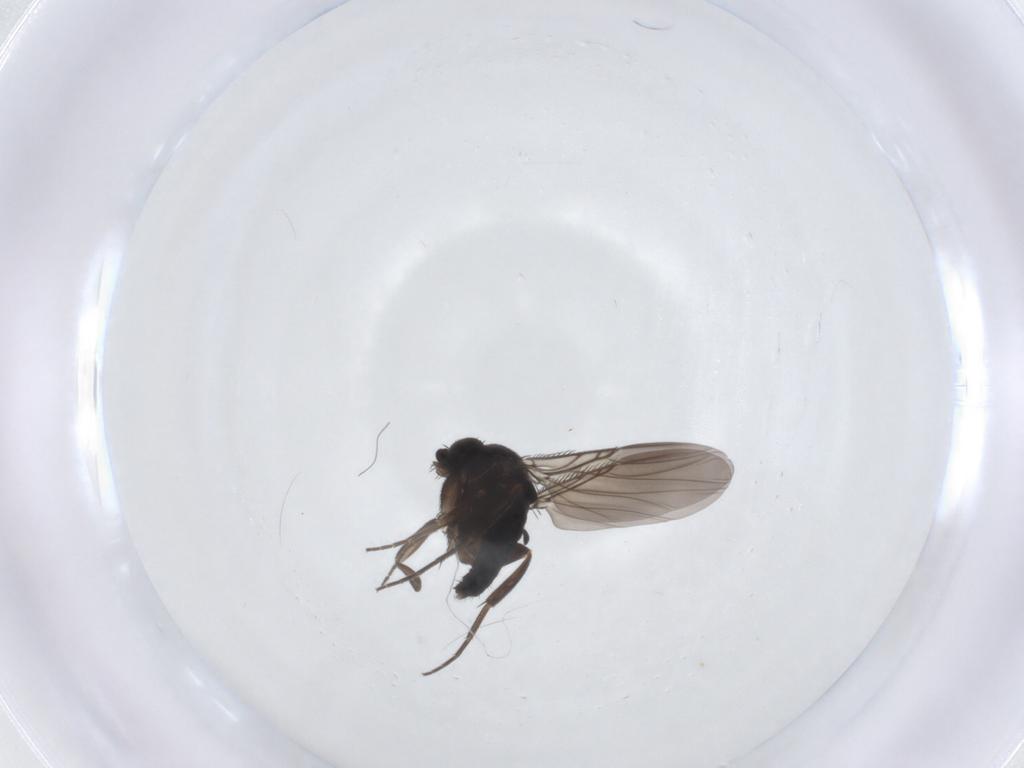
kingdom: Animalia
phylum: Arthropoda
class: Insecta
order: Diptera
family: Phoridae
